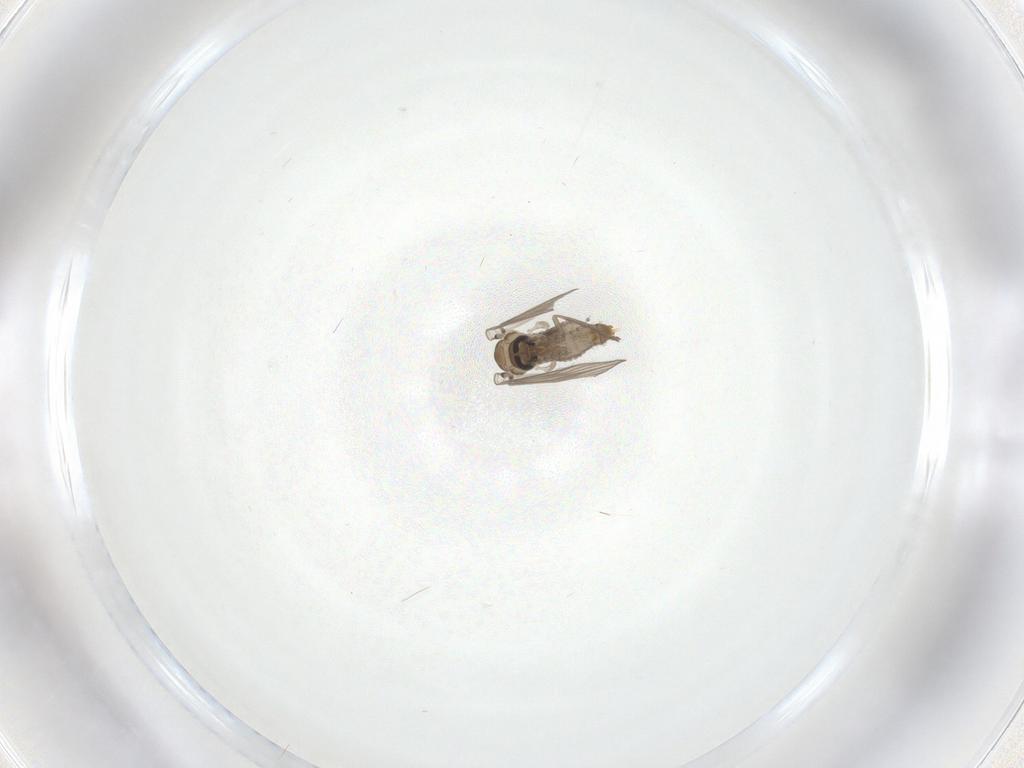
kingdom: Animalia
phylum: Arthropoda
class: Insecta
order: Diptera
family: Psychodidae
